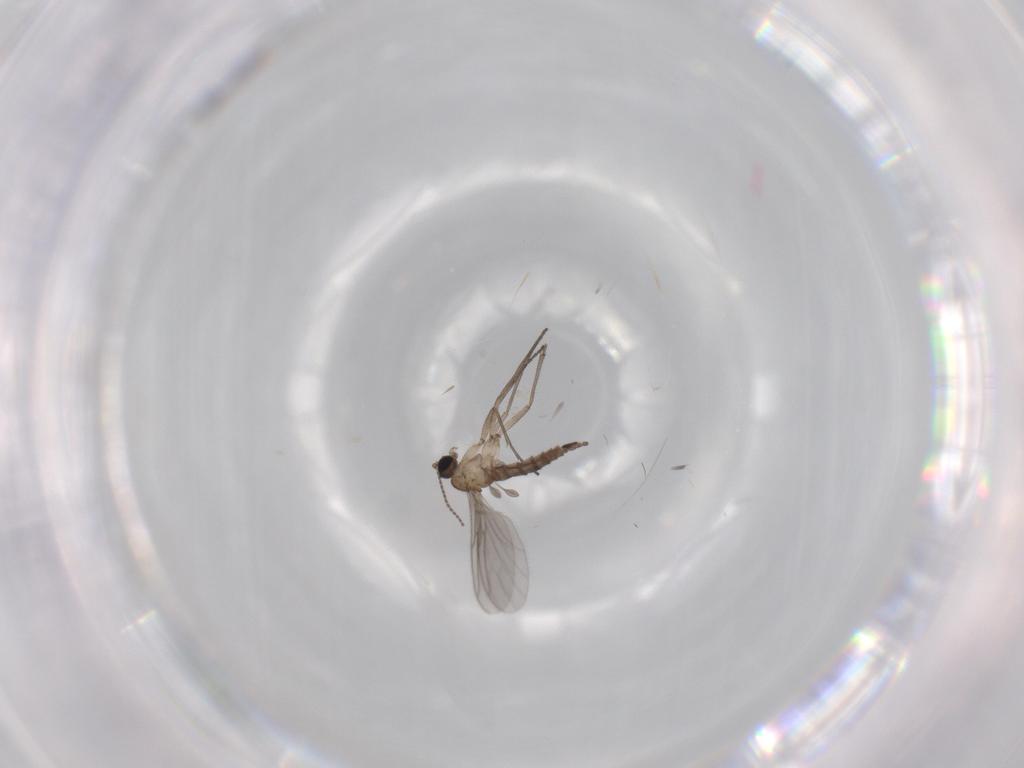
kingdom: Animalia
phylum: Arthropoda
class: Insecta
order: Diptera
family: Sciaridae
